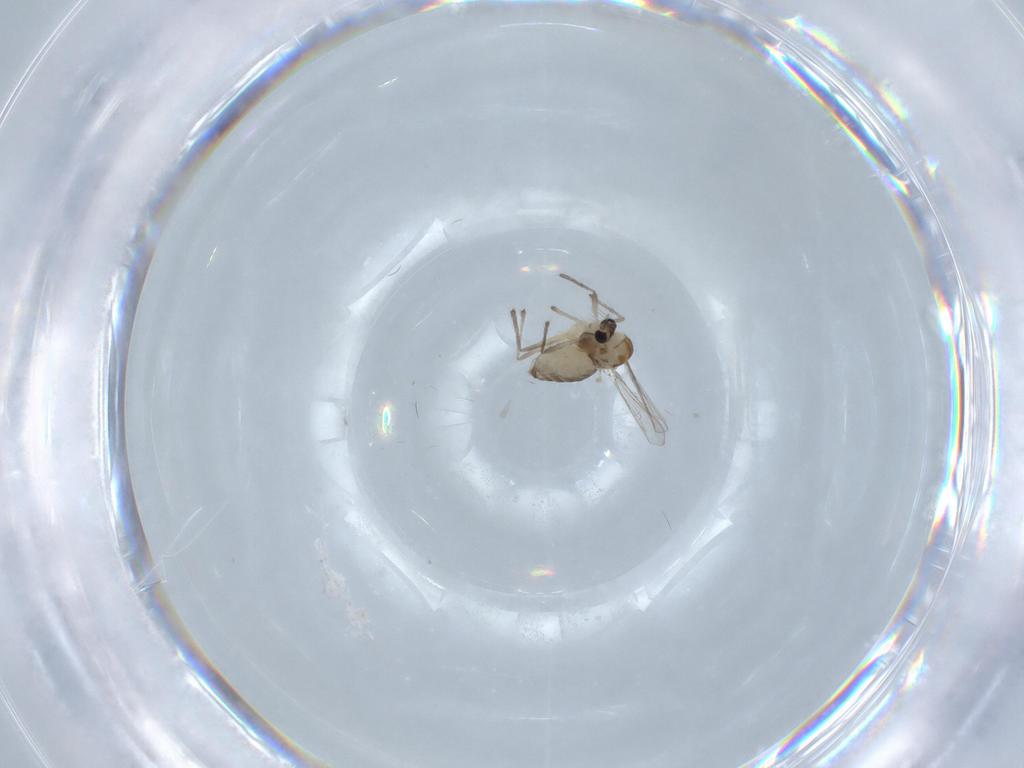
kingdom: Animalia
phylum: Arthropoda
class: Insecta
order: Diptera
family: Chironomidae
